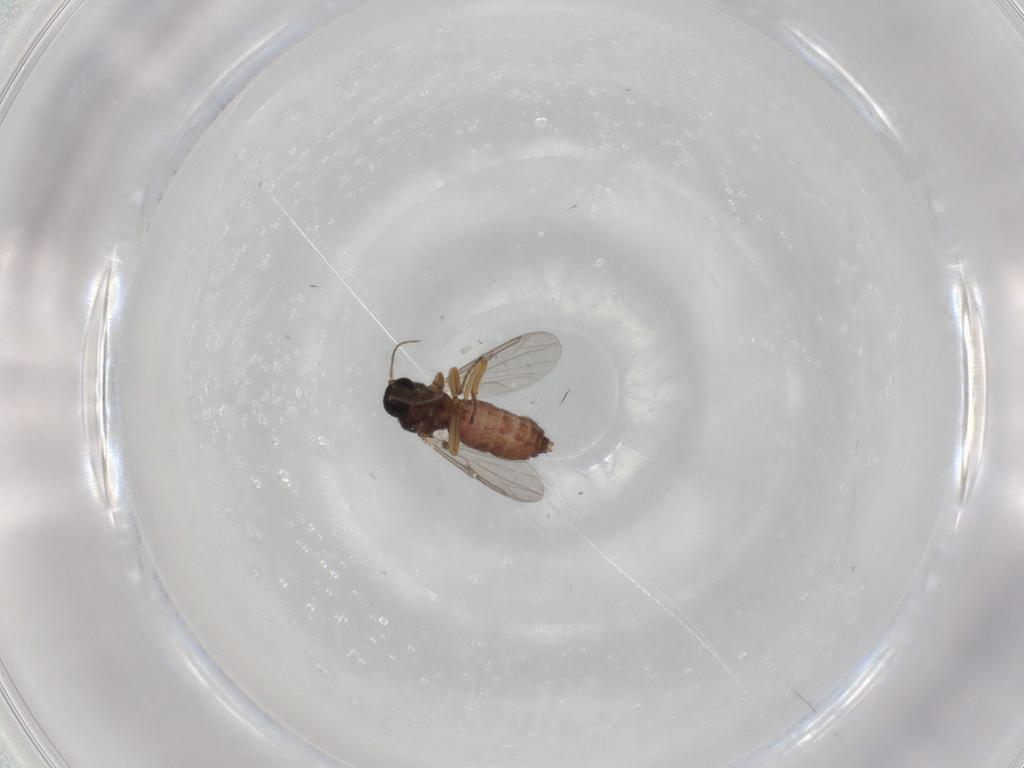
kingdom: Animalia
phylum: Arthropoda
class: Insecta
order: Diptera
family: Ceratopogonidae
